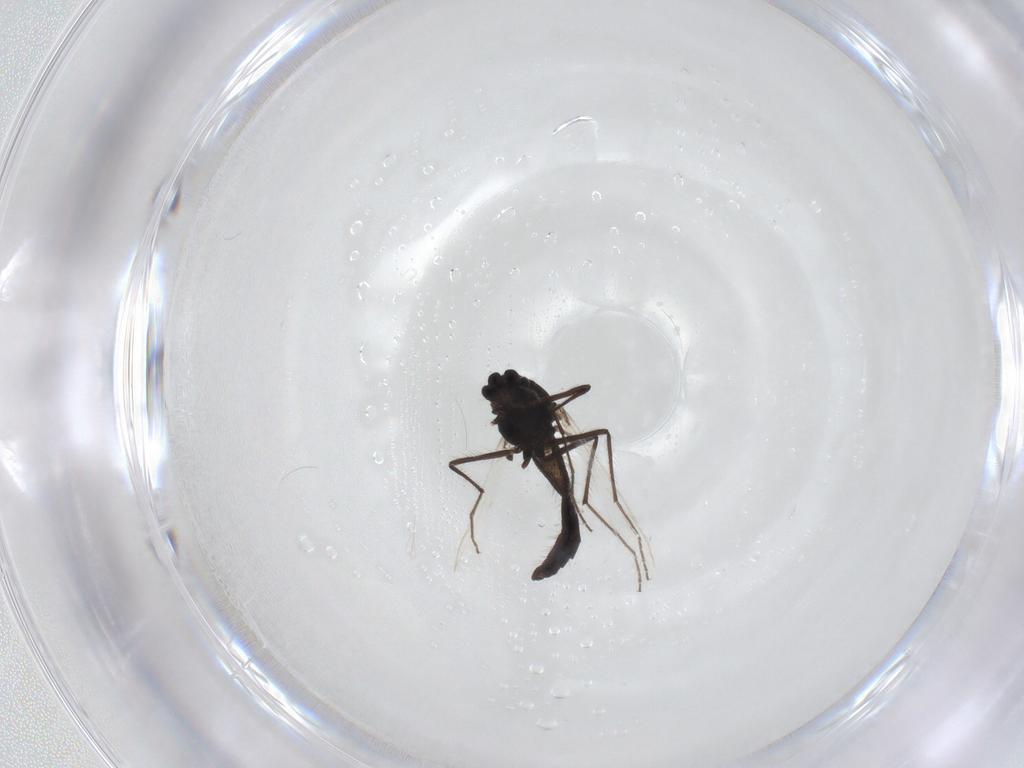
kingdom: Animalia
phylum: Arthropoda
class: Insecta
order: Diptera
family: Chironomidae
